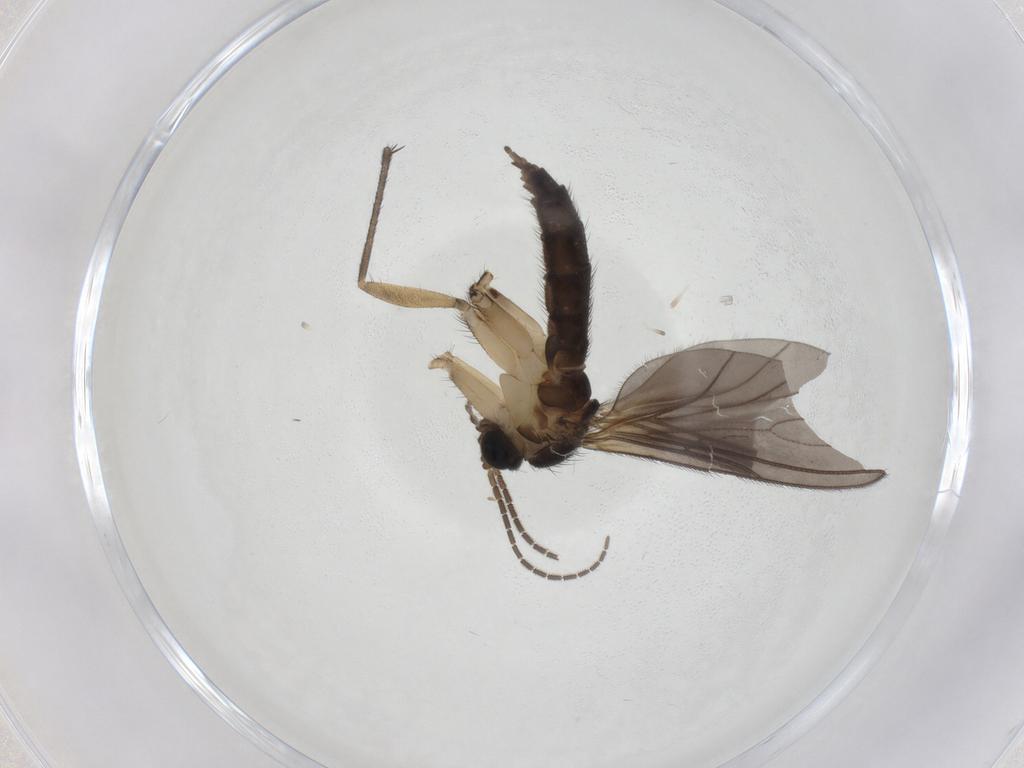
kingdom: Animalia
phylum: Arthropoda
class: Insecta
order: Diptera
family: Sciaridae
